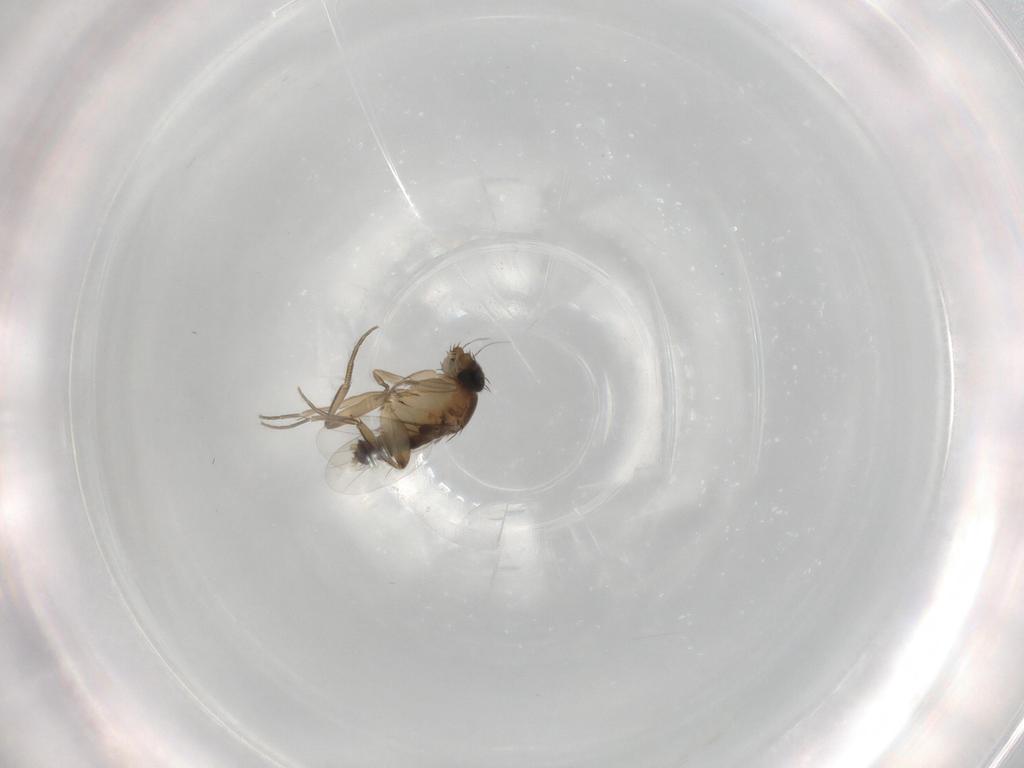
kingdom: Animalia
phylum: Arthropoda
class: Insecta
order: Diptera
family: Phoridae
